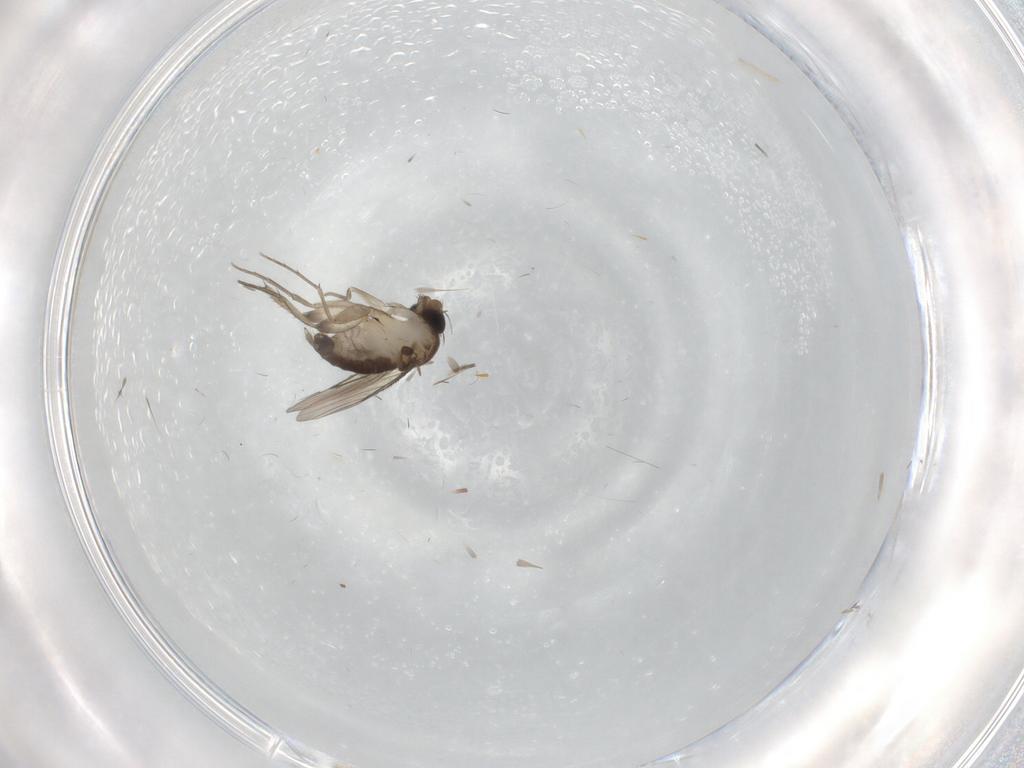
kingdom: Animalia
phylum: Arthropoda
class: Insecta
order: Diptera
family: Phoridae
